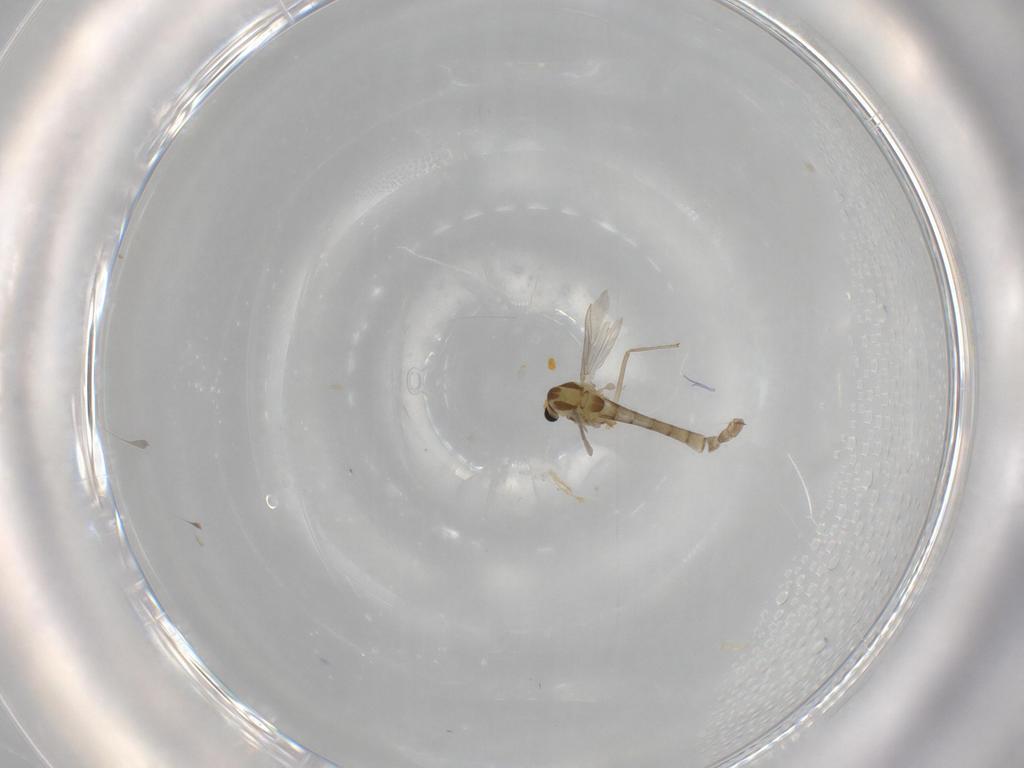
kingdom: Animalia
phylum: Arthropoda
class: Insecta
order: Diptera
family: Chironomidae
